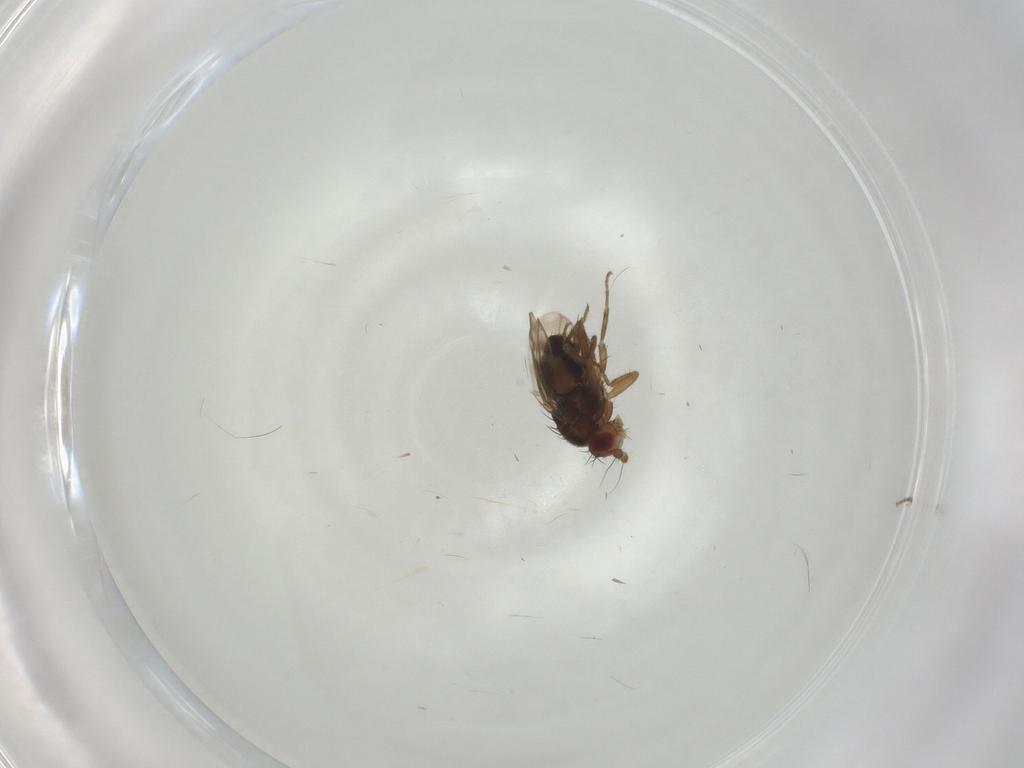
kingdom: Animalia
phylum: Arthropoda
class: Insecta
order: Diptera
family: Sphaeroceridae
